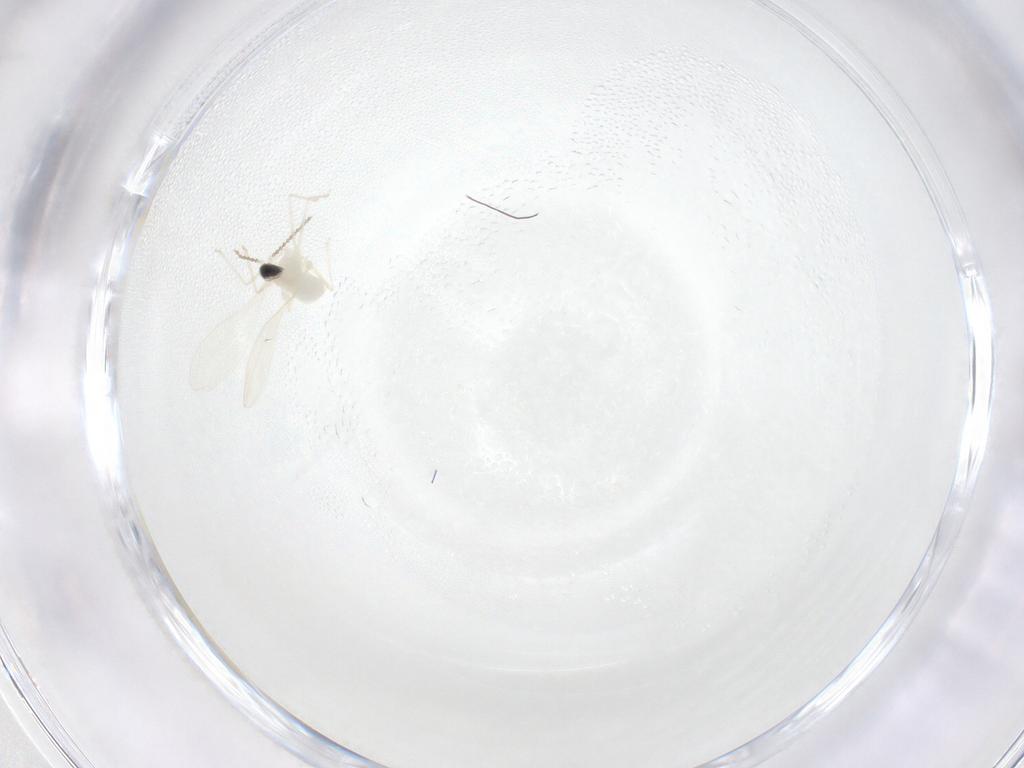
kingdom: Animalia
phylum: Arthropoda
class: Insecta
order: Diptera
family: Cecidomyiidae
